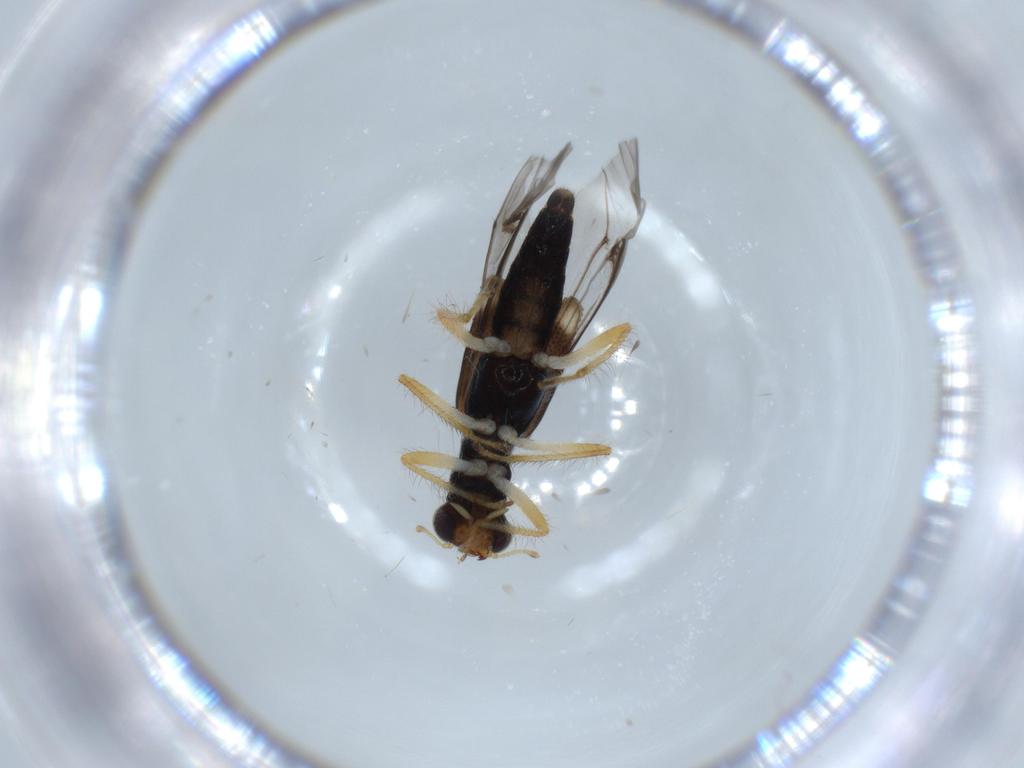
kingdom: Animalia
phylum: Arthropoda
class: Insecta
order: Coleoptera
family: Cleridae
